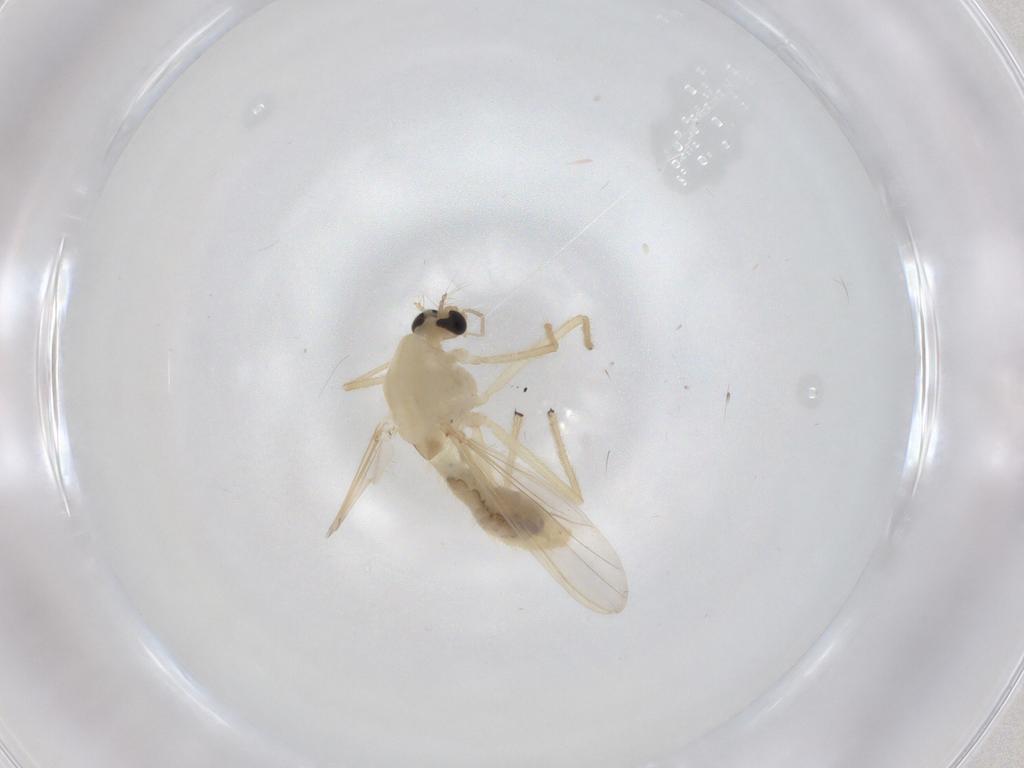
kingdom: Animalia
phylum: Arthropoda
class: Insecta
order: Diptera
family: Chironomidae
